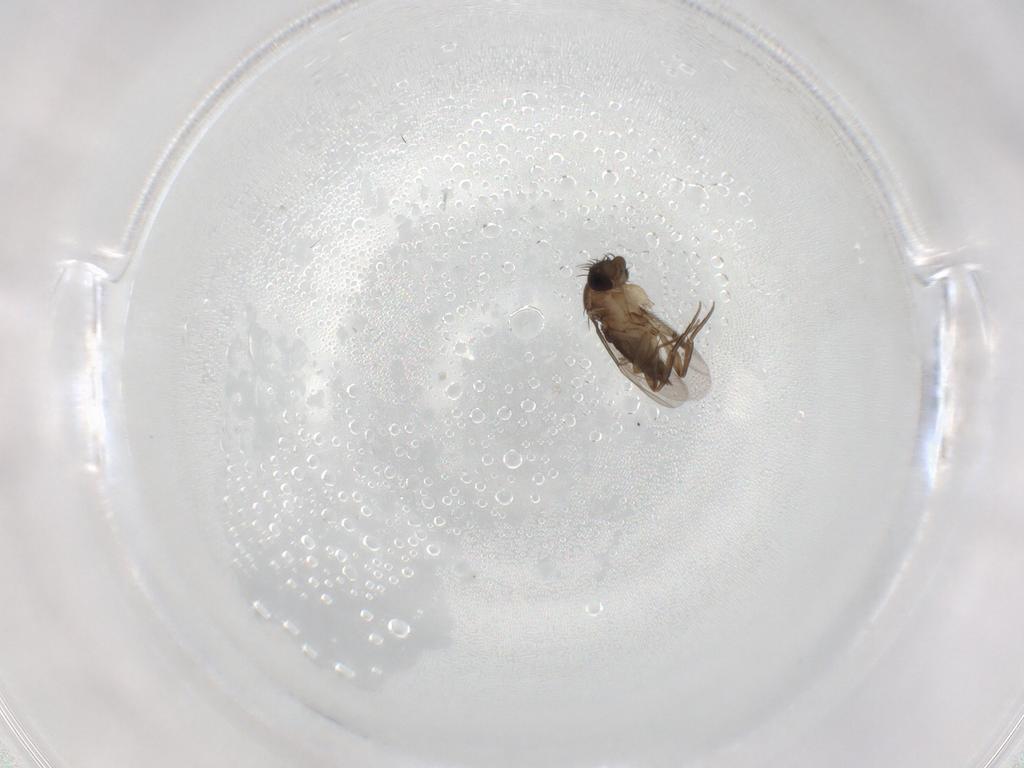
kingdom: Animalia
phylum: Arthropoda
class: Insecta
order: Diptera
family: Phoridae
